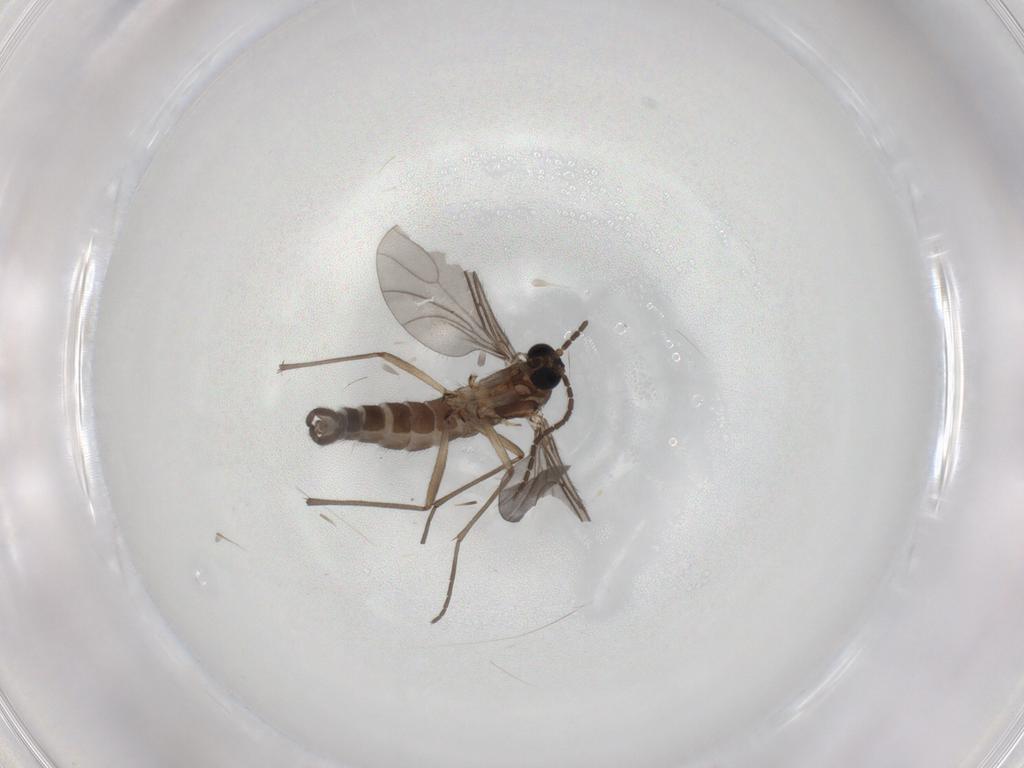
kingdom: Animalia
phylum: Arthropoda
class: Insecta
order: Diptera
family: Sciaridae
